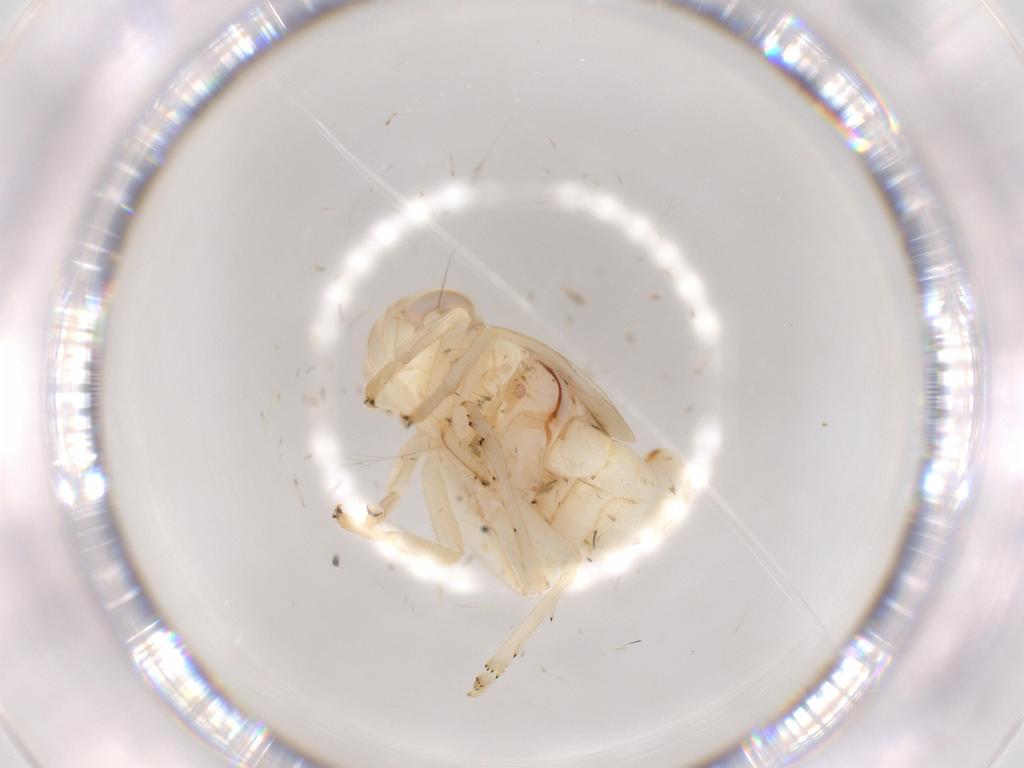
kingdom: Animalia
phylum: Arthropoda
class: Insecta
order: Hemiptera
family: Nogodinidae
